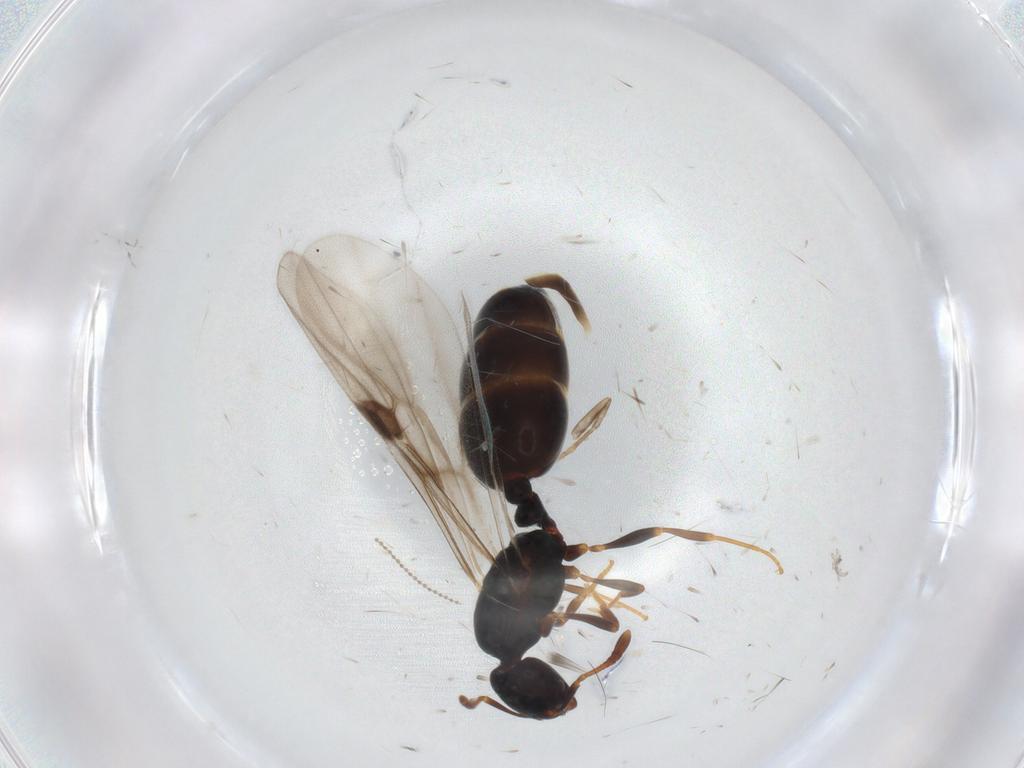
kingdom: Animalia
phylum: Arthropoda
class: Insecta
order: Hymenoptera
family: Formicidae
